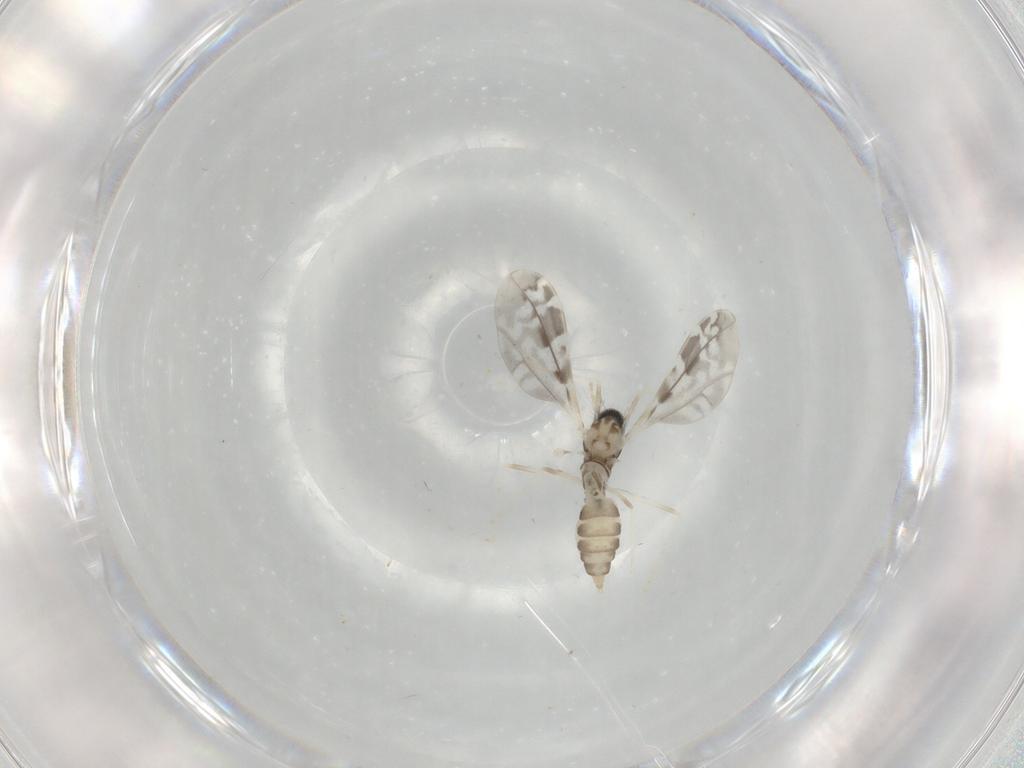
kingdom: Animalia
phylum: Arthropoda
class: Insecta
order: Diptera
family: Cecidomyiidae
